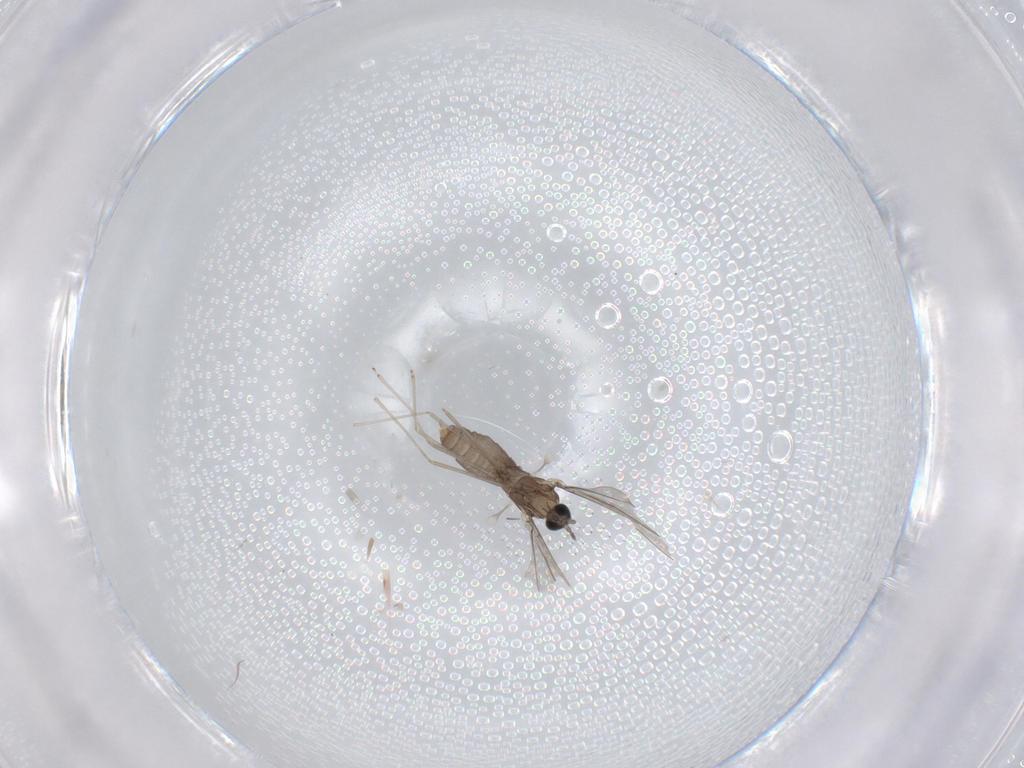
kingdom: Animalia
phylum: Arthropoda
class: Insecta
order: Diptera
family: Cecidomyiidae
